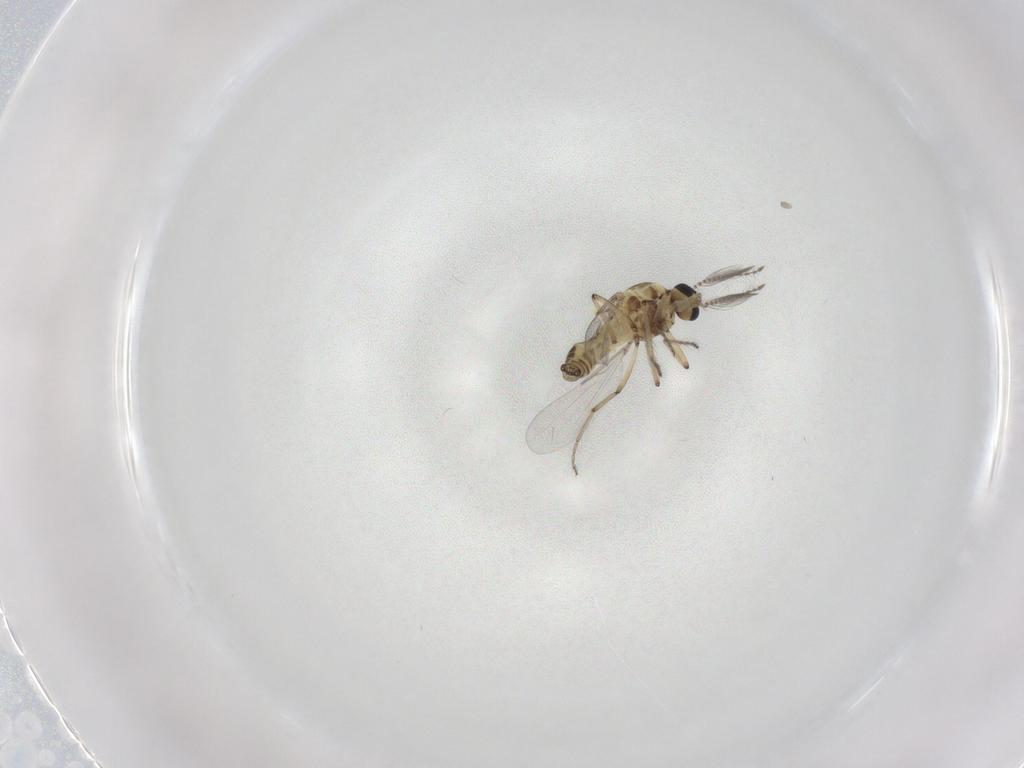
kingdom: Animalia
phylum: Arthropoda
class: Insecta
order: Diptera
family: Ceratopogonidae
